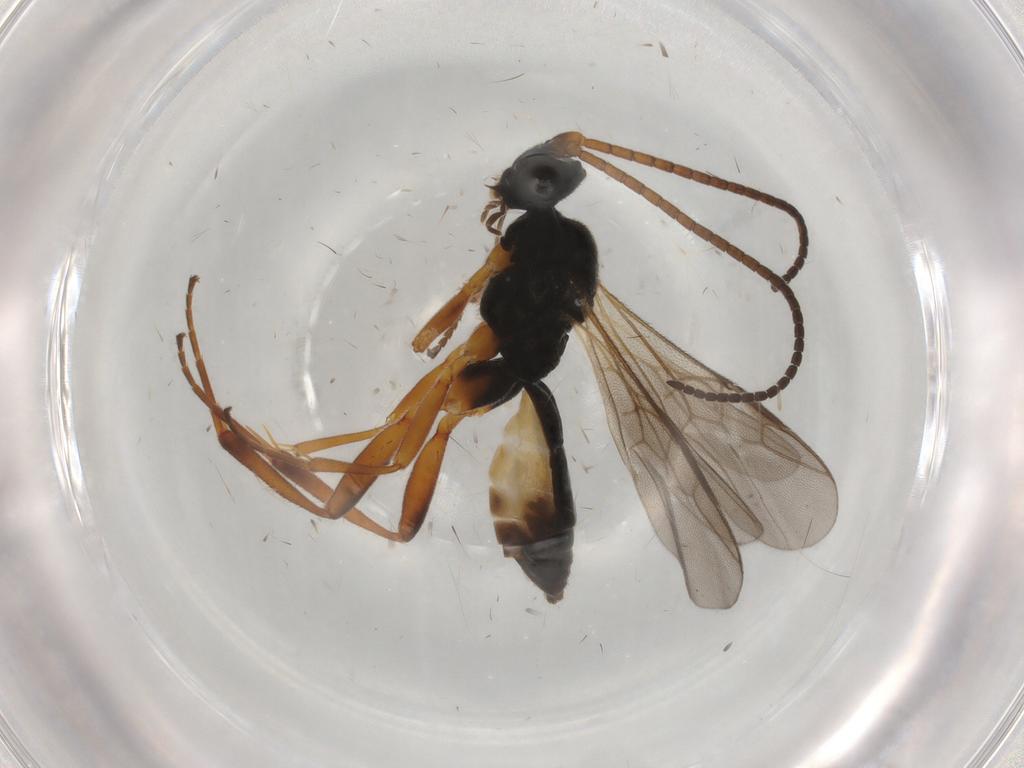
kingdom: Animalia
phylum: Arthropoda
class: Insecta
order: Hymenoptera
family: Braconidae
